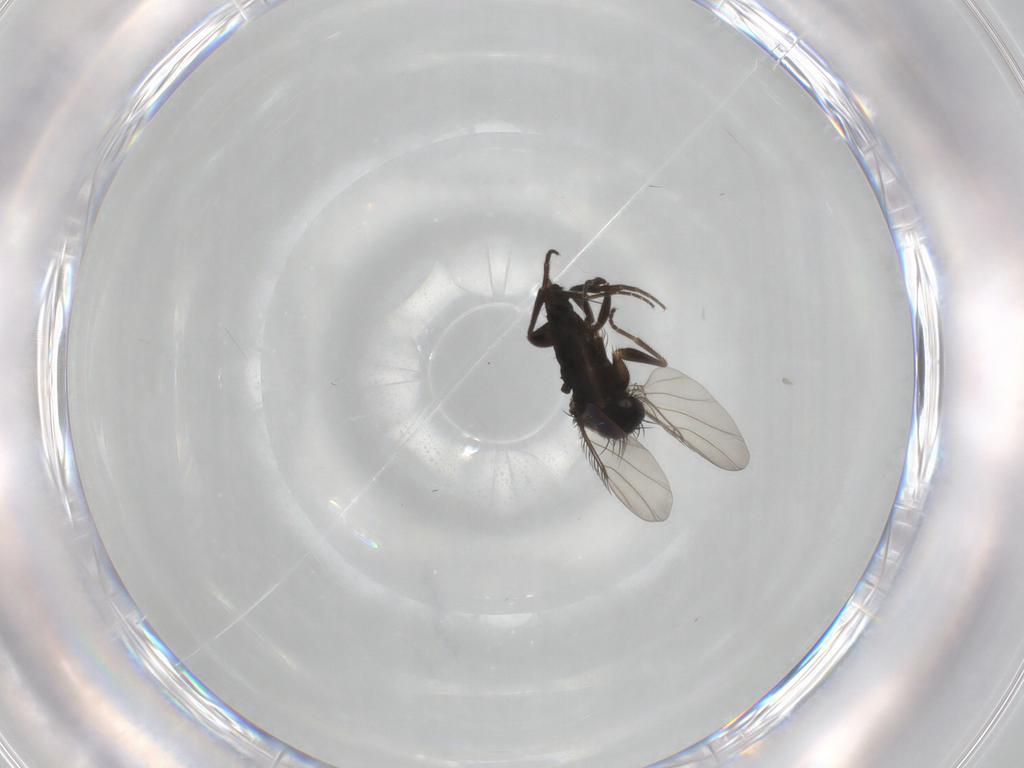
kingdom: Animalia
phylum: Arthropoda
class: Insecta
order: Diptera
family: Phoridae
